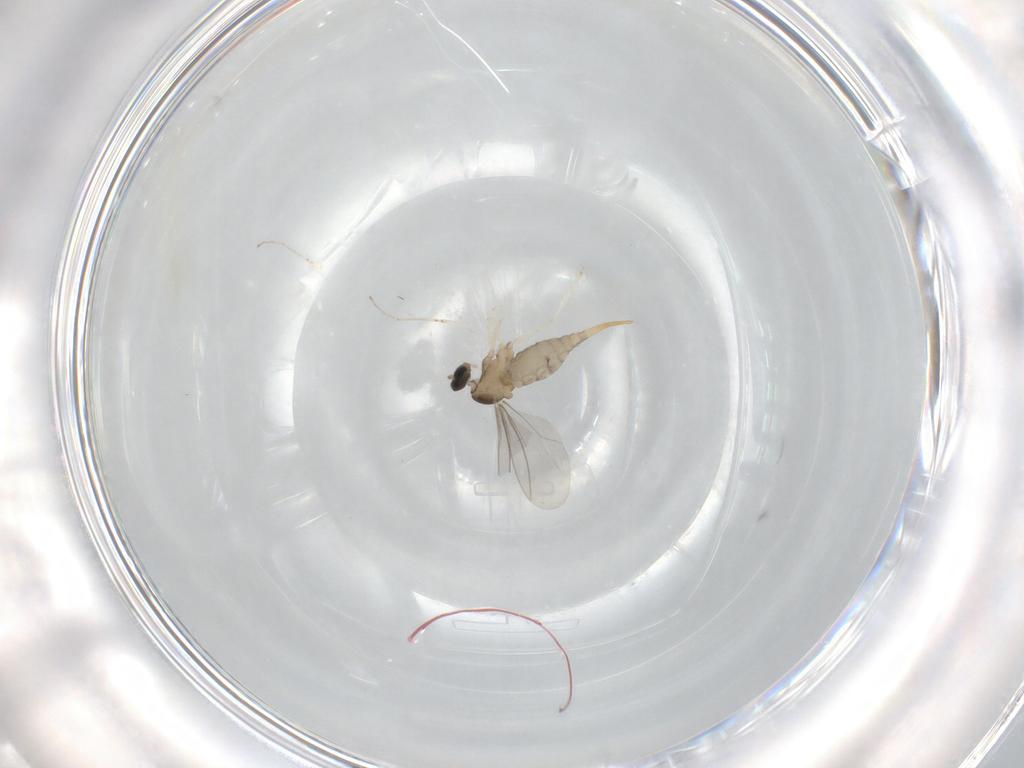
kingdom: Animalia
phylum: Arthropoda
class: Insecta
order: Diptera
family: Cecidomyiidae
